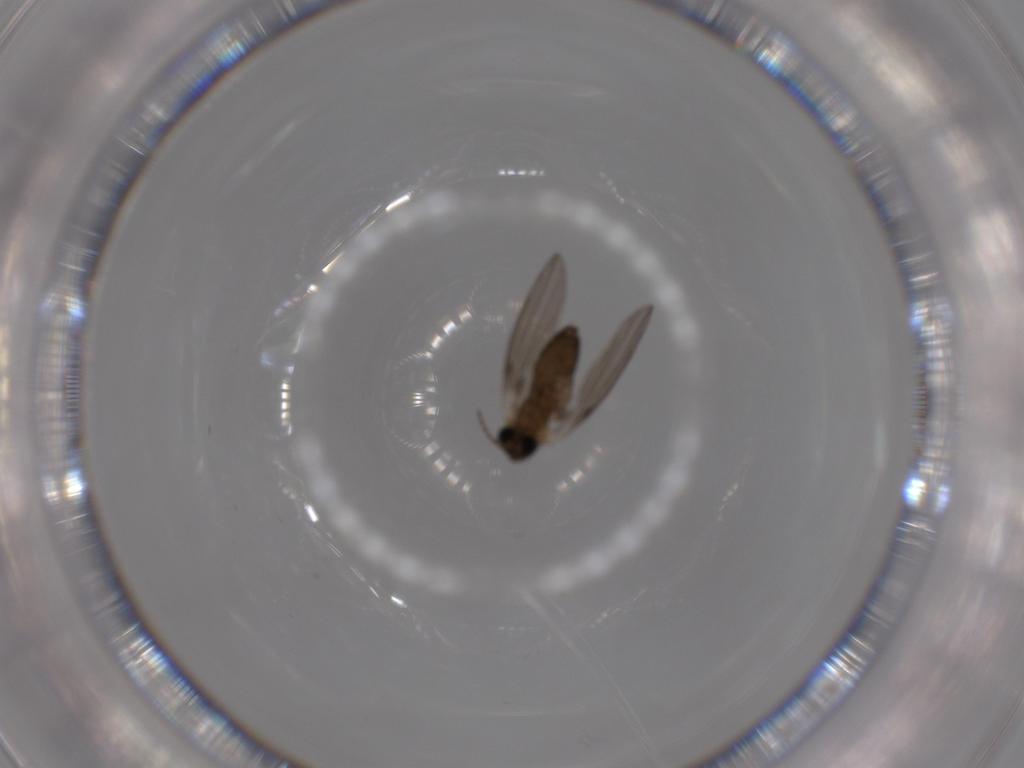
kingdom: Animalia
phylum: Arthropoda
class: Insecta
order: Diptera
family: Psychodidae
